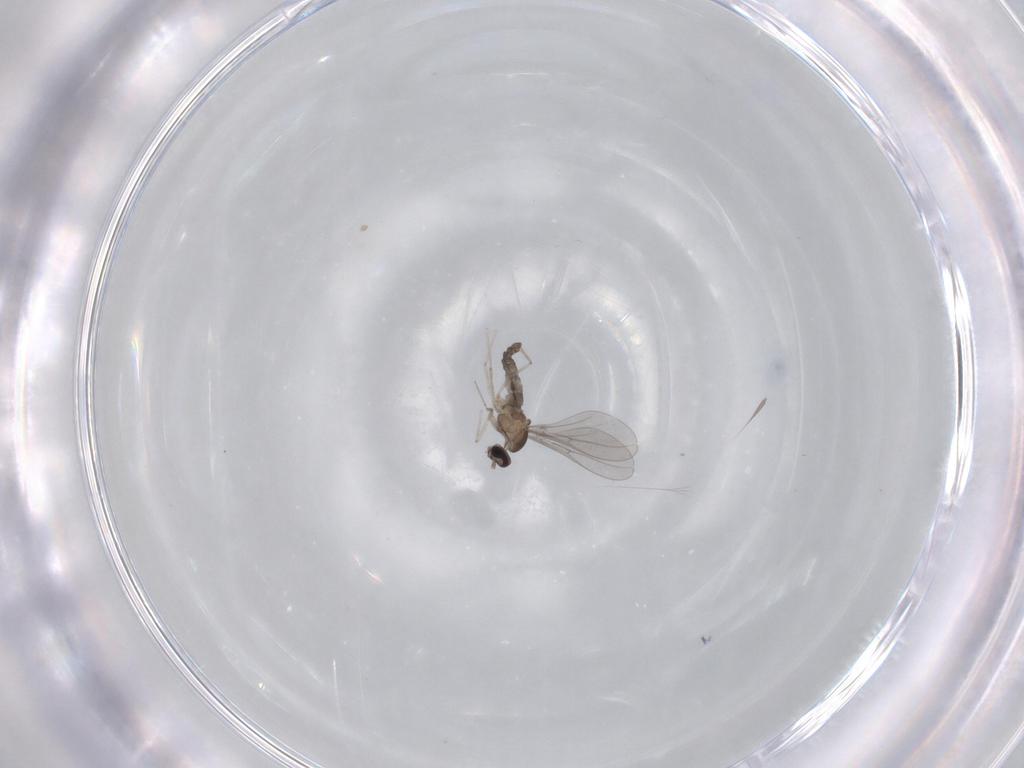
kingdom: Animalia
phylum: Arthropoda
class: Insecta
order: Diptera
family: Cecidomyiidae
